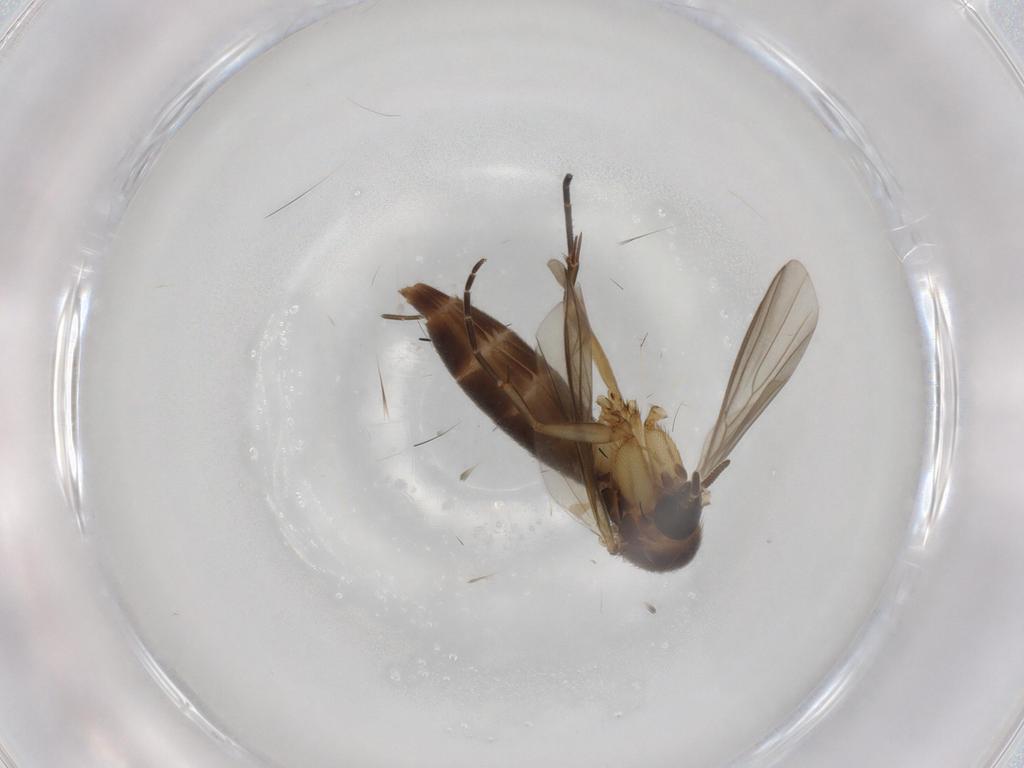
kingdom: Animalia
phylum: Arthropoda
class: Insecta
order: Diptera
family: Mycetophilidae
